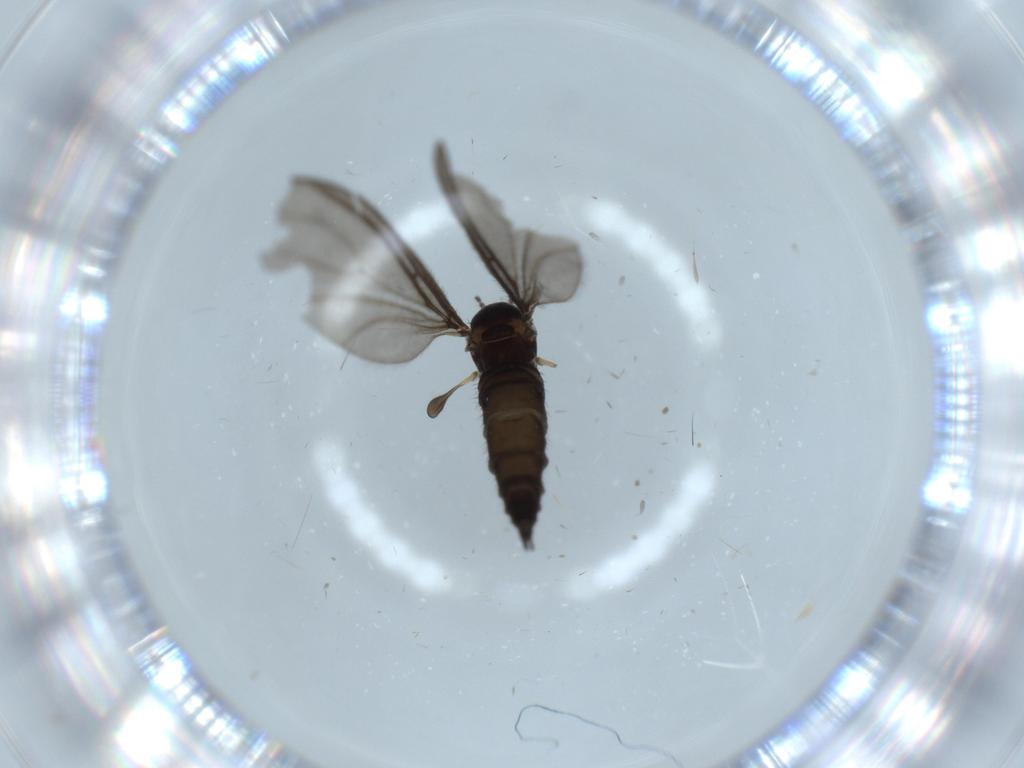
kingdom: Animalia
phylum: Arthropoda
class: Insecta
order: Diptera
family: Sciaridae
